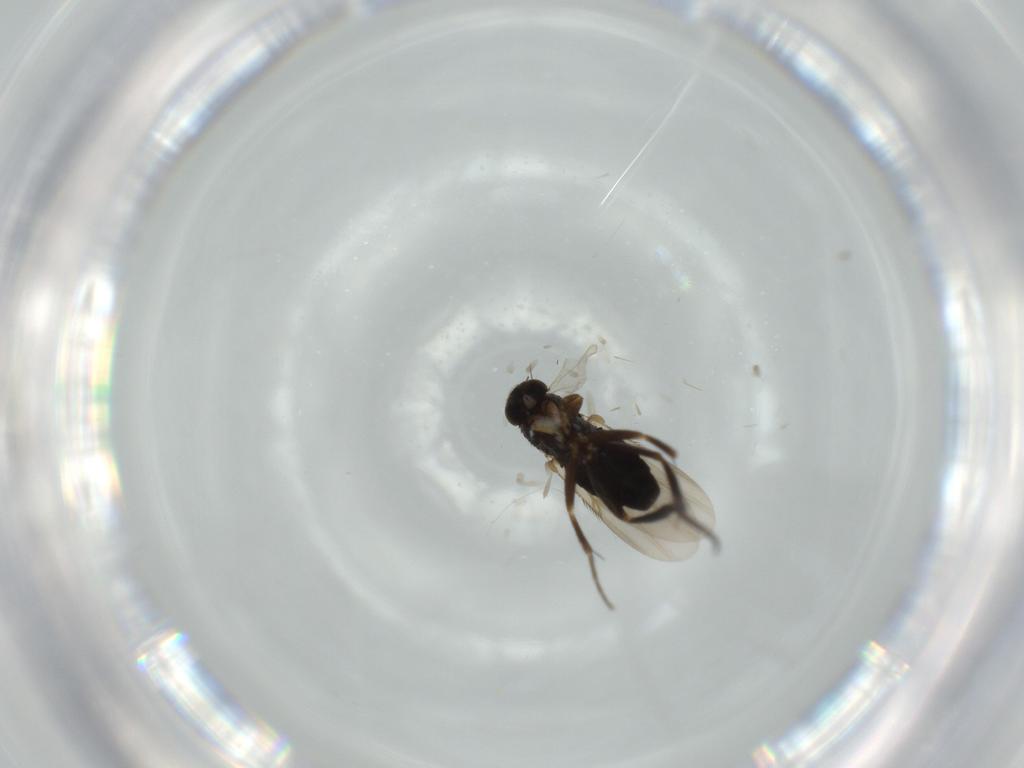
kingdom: Animalia
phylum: Arthropoda
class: Insecta
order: Diptera
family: Phoridae
